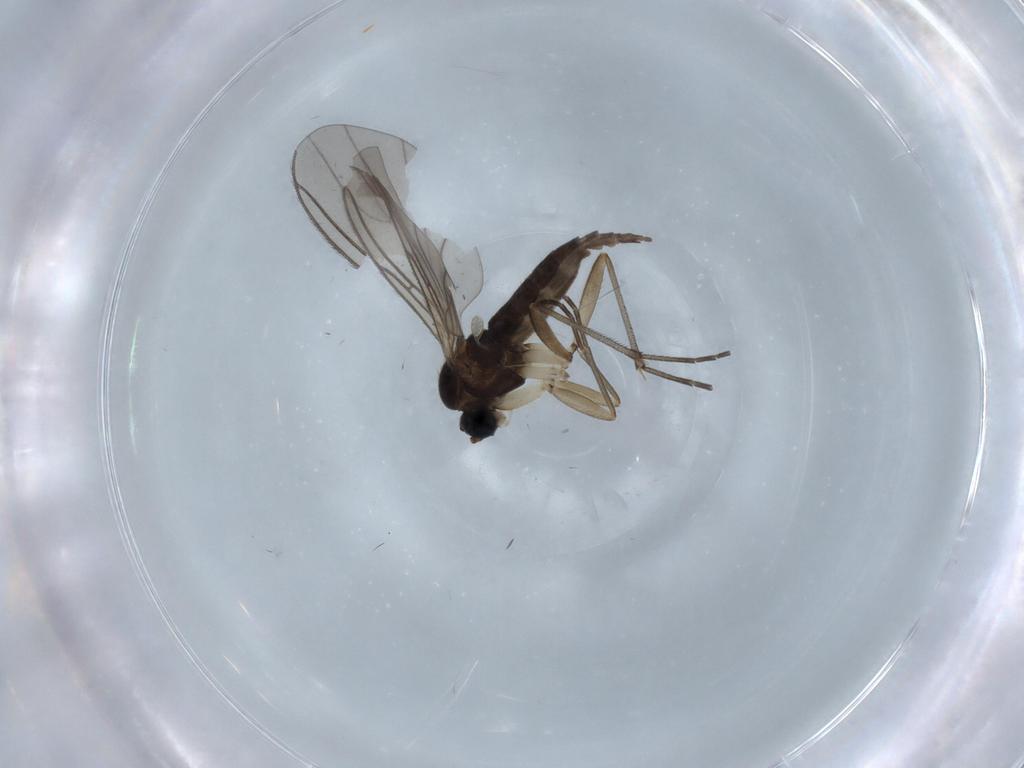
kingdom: Animalia
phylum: Arthropoda
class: Insecta
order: Diptera
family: Sciaridae
